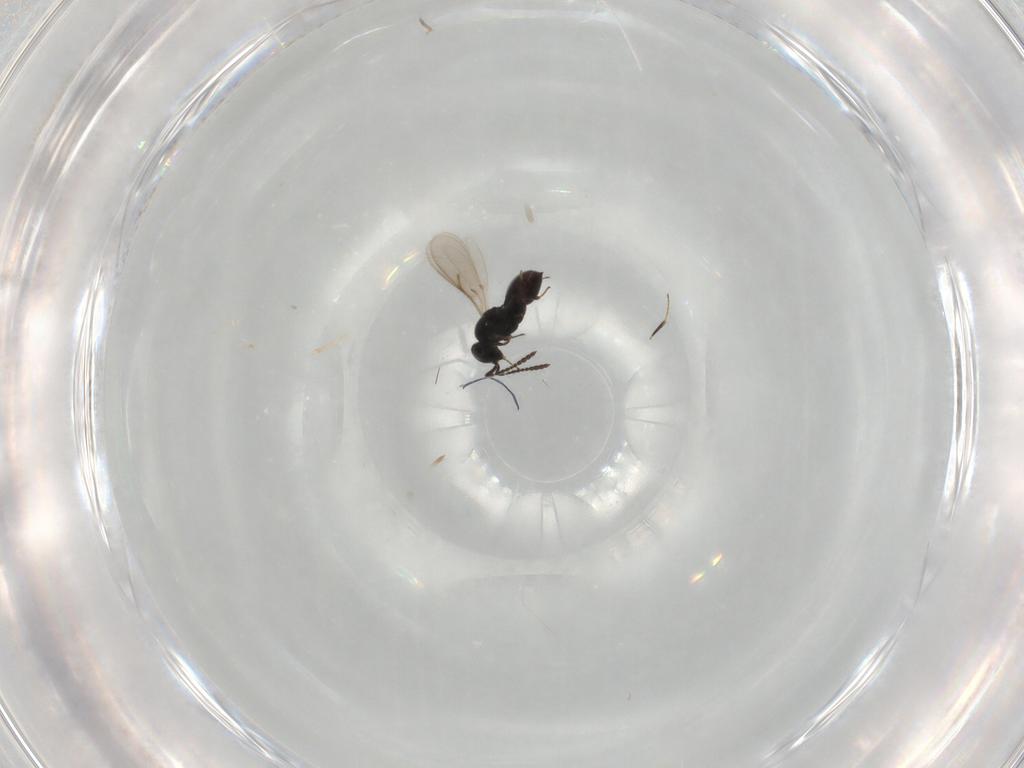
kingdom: Animalia
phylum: Arthropoda
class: Insecta
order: Hymenoptera
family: Scelionidae
